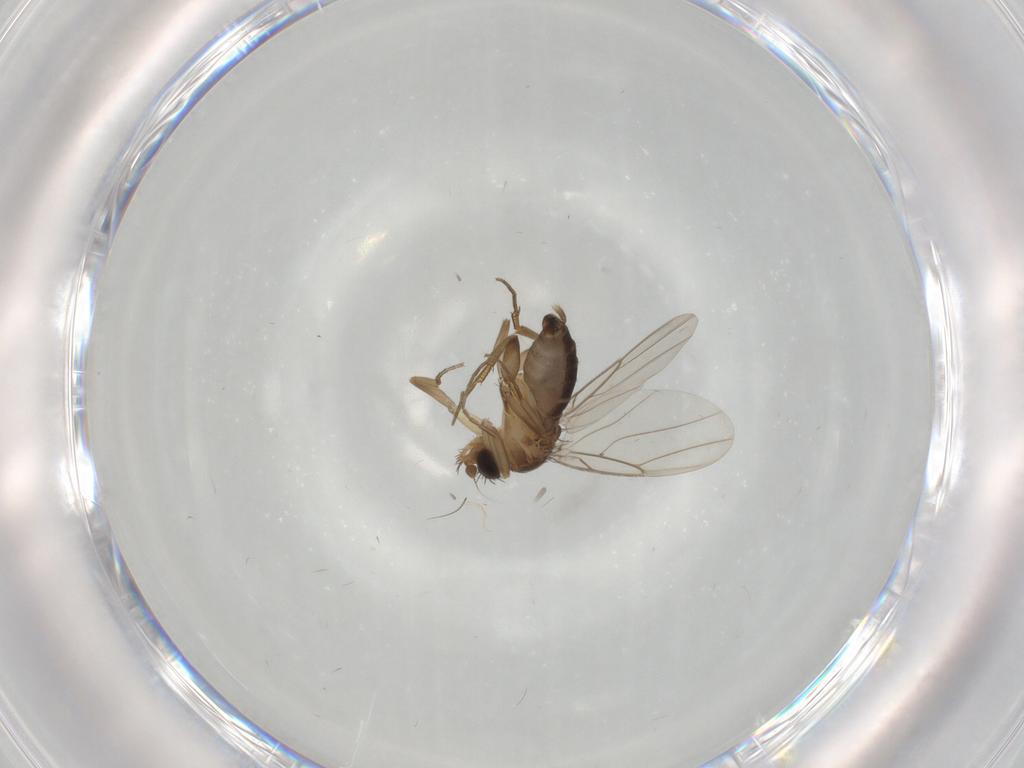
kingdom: Animalia
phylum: Arthropoda
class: Insecta
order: Diptera
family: Phoridae
